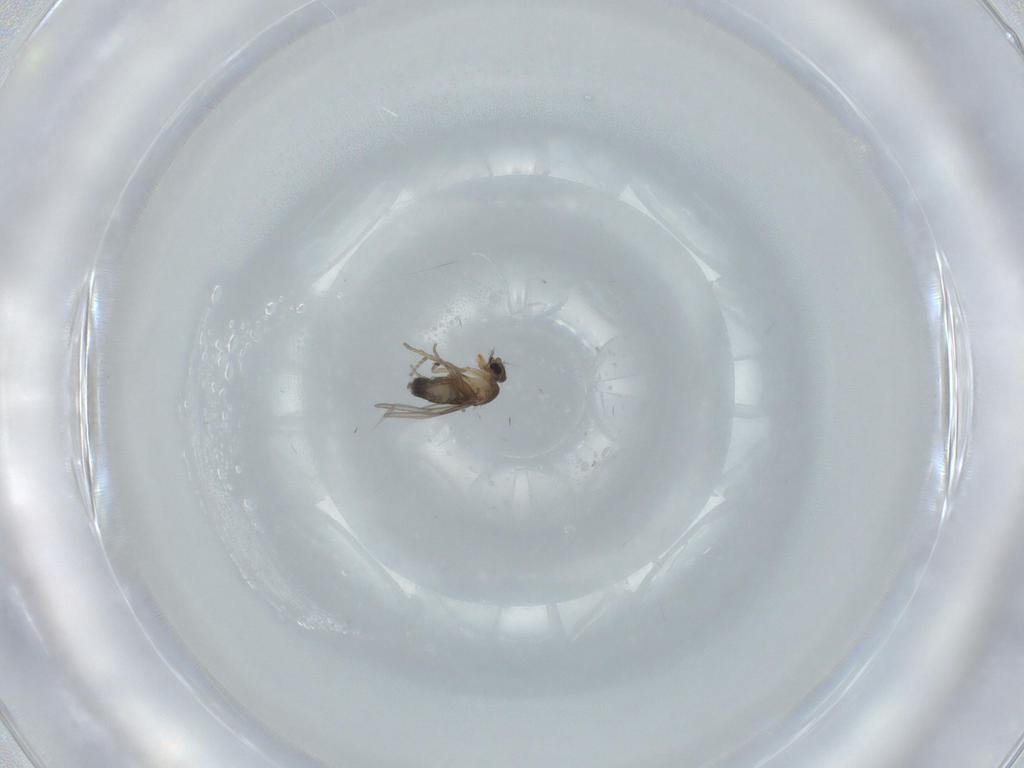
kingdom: Animalia
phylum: Arthropoda
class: Insecta
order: Diptera
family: Phoridae
